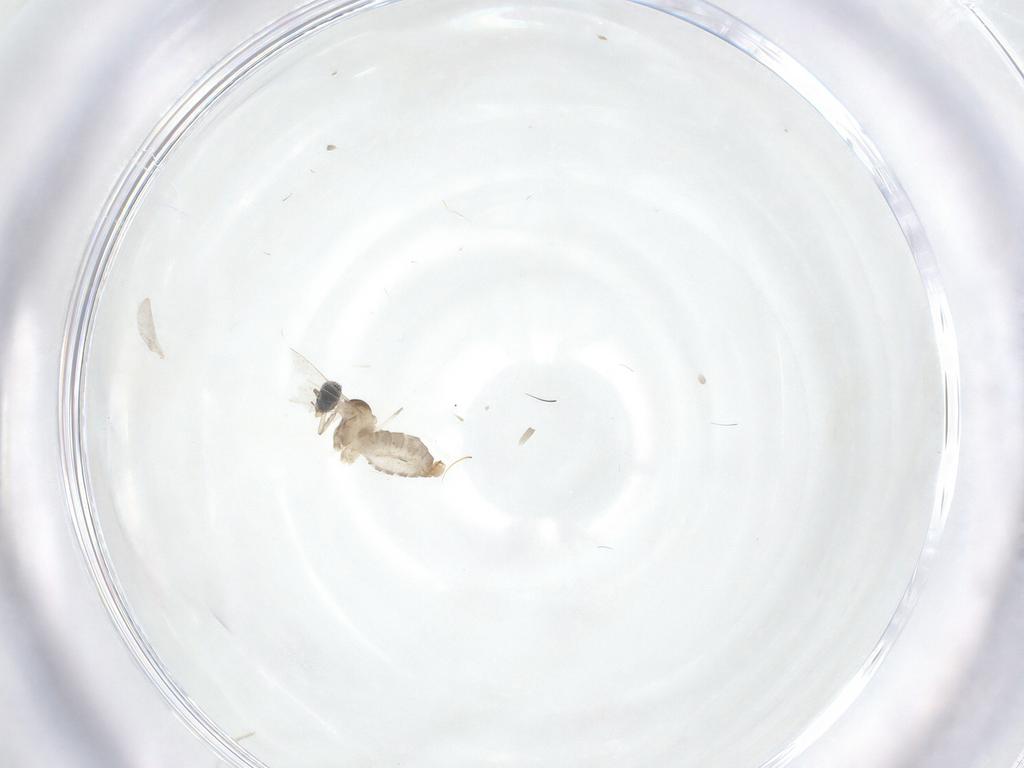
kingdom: Animalia
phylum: Arthropoda
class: Insecta
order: Diptera
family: Cecidomyiidae
